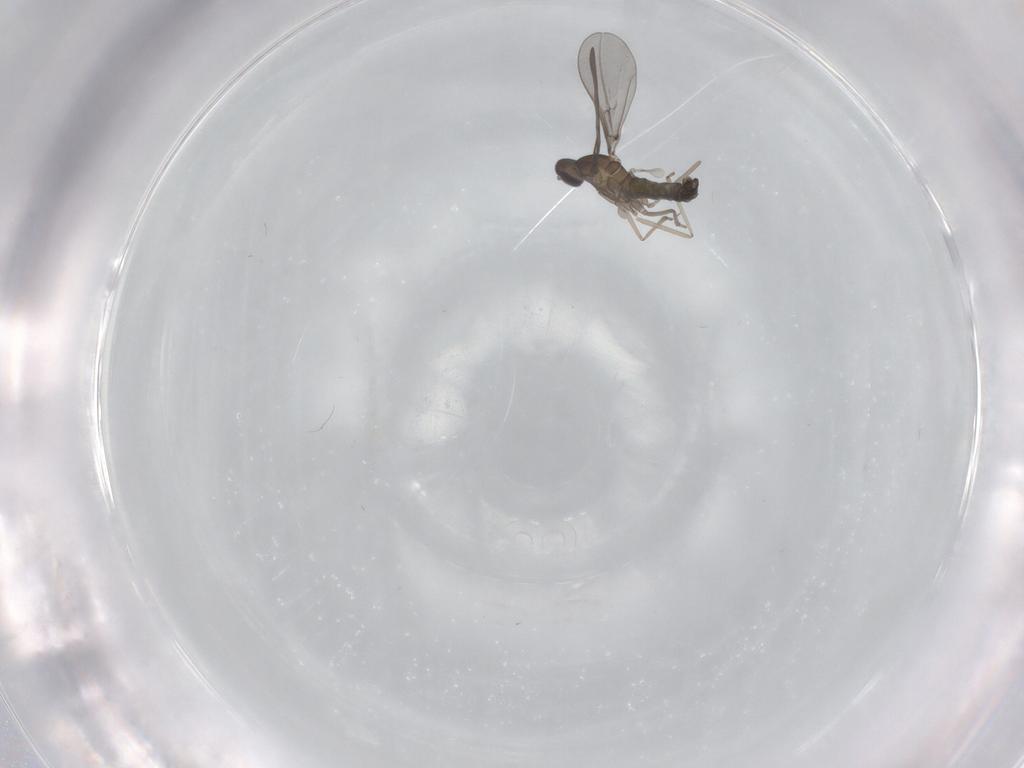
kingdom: Animalia
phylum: Arthropoda
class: Insecta
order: Diptera
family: Cecidomyiidae
